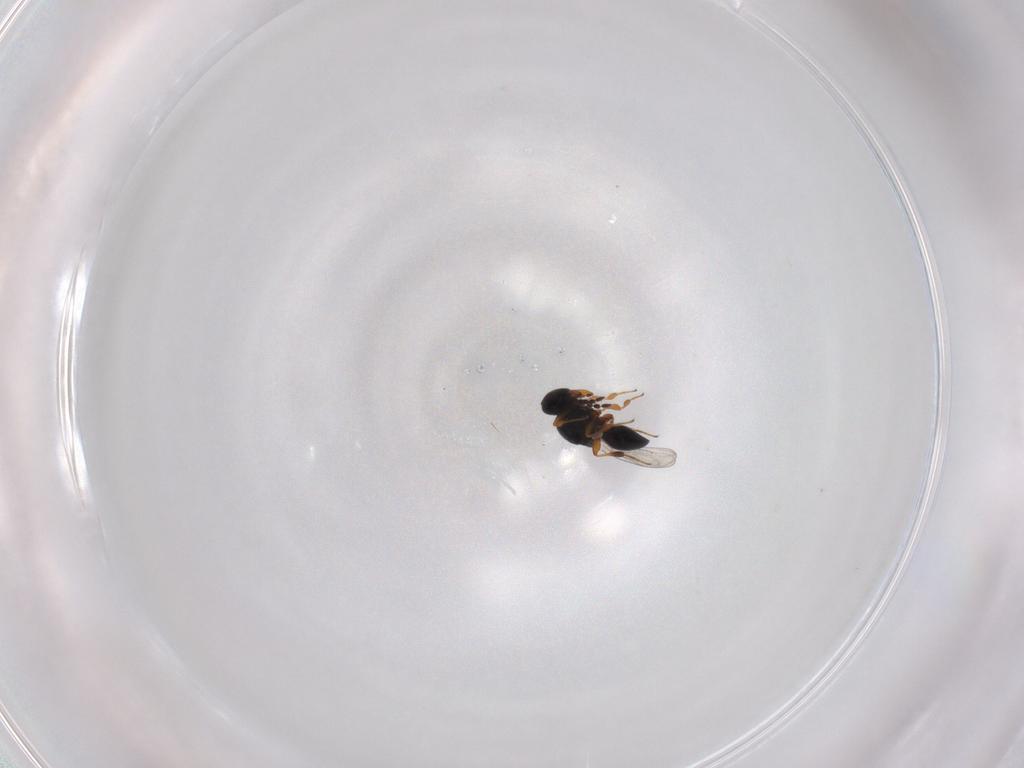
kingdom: Animalia
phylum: Arthropoda
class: Insecta
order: Hymenoptera
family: Platygastridae
